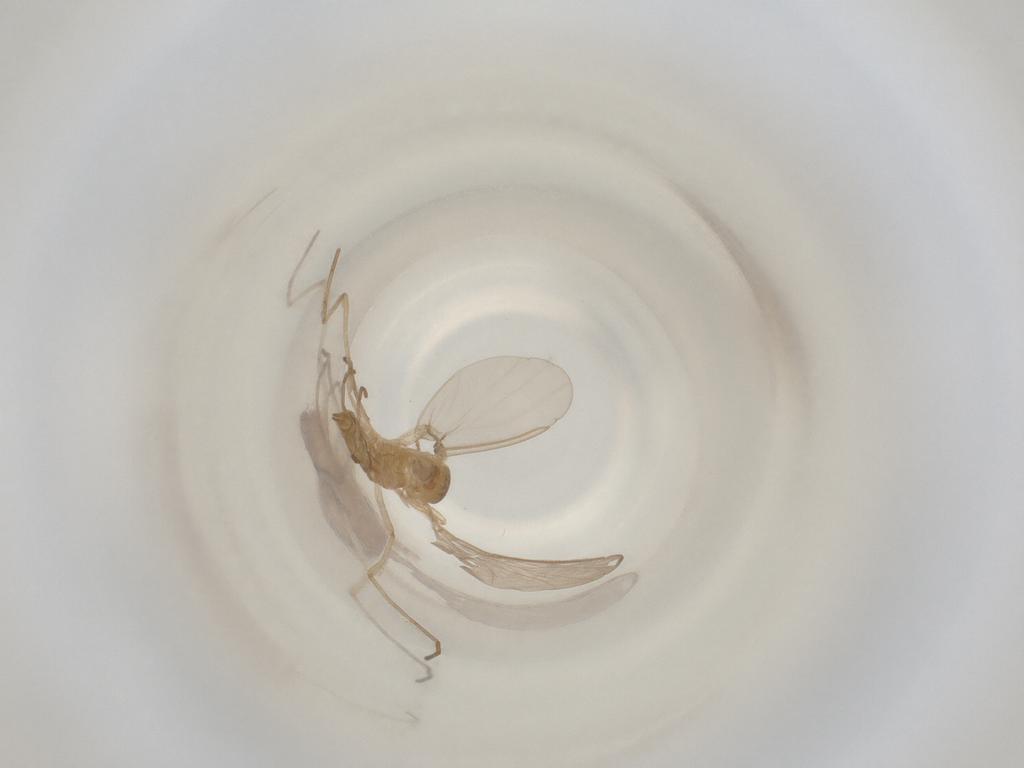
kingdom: Animalia
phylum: Arthropoda
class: Insecta
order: Diptera
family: Cecidomyiidae
